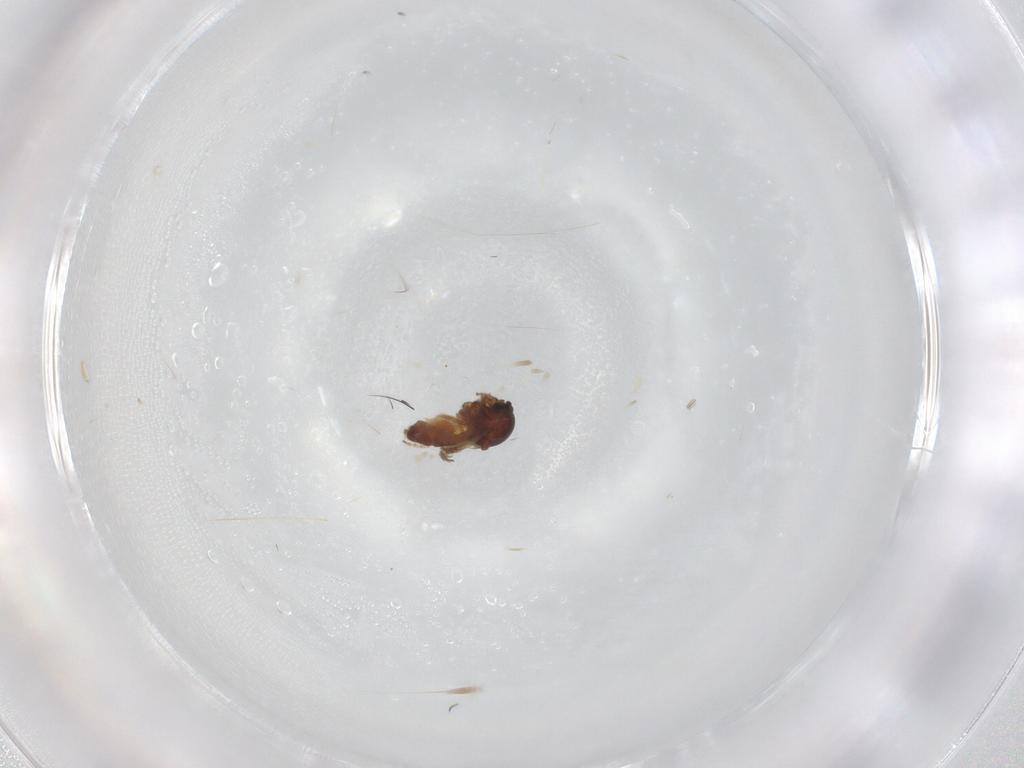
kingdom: Animalia
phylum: Arthropoda
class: Insecta
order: Diptera
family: Ceratopogonidae
